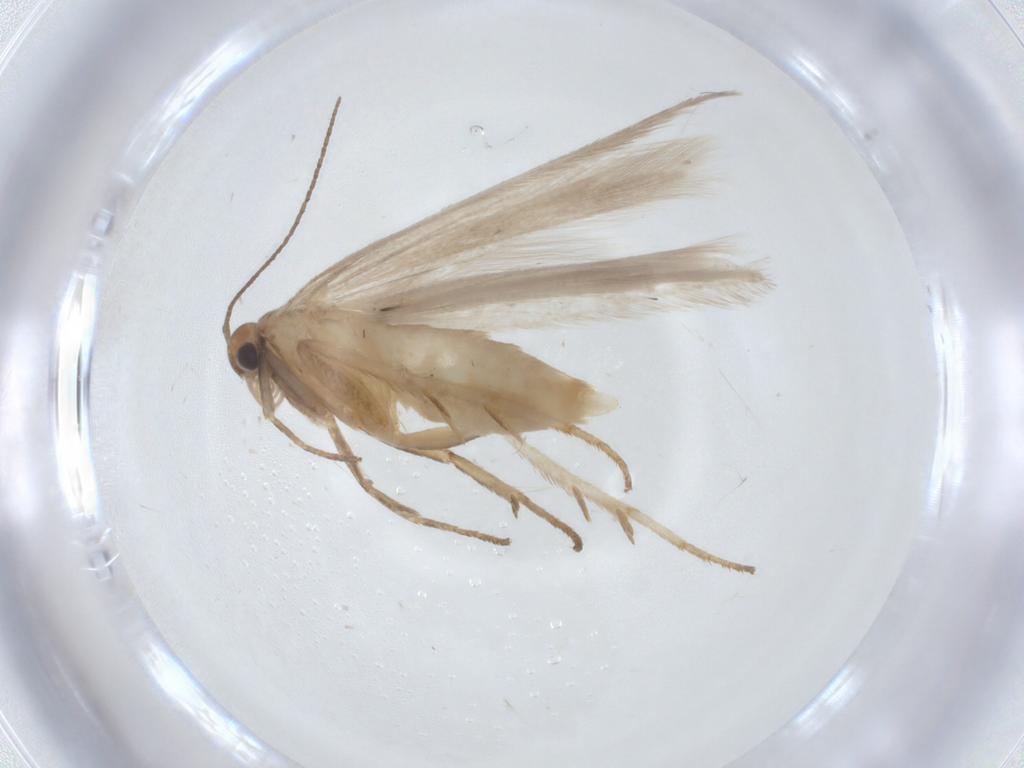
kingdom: Animalia
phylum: Arthropoda
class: Insecta
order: Lepidoptera
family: Gelechiidae
